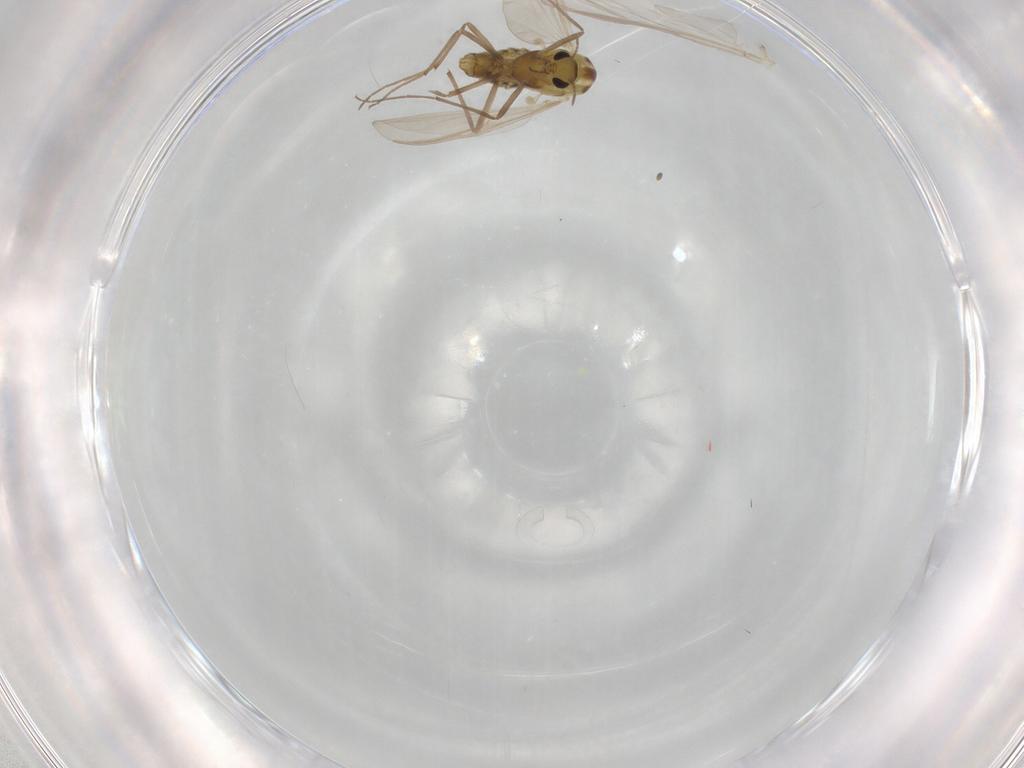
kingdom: Animalia
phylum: Arthropoda
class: Insecta
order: Diptera
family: Chironomidae
